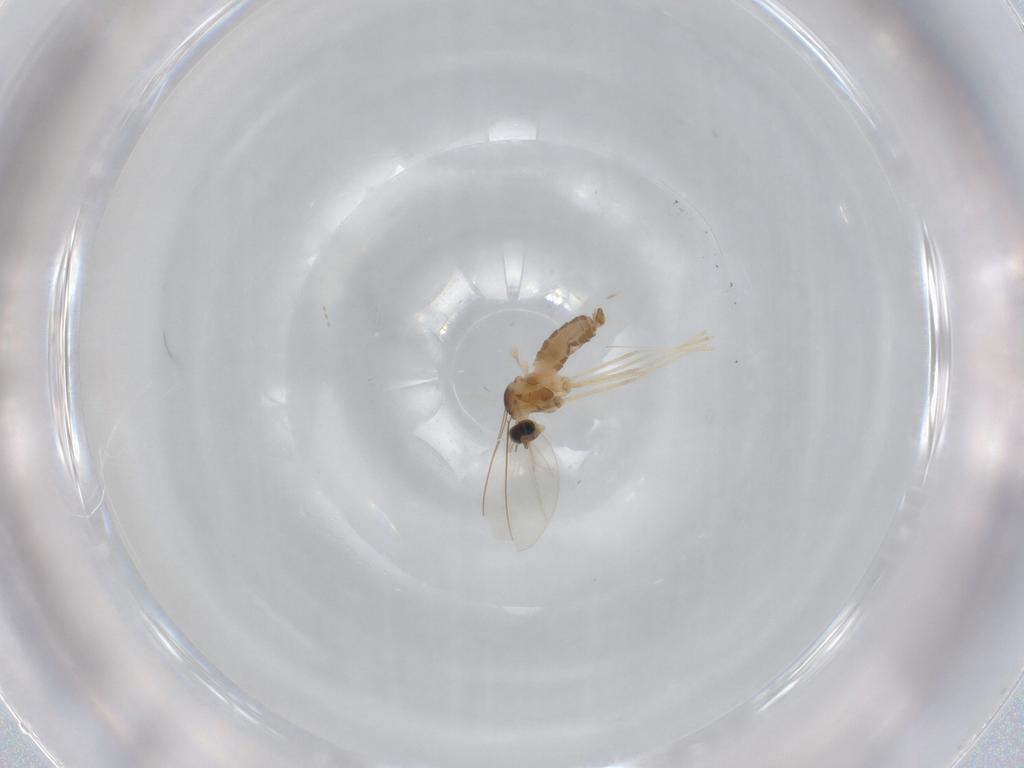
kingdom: Animalia
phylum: Arthropoda
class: Insecta
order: Diptera
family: Cecidomyiidae
